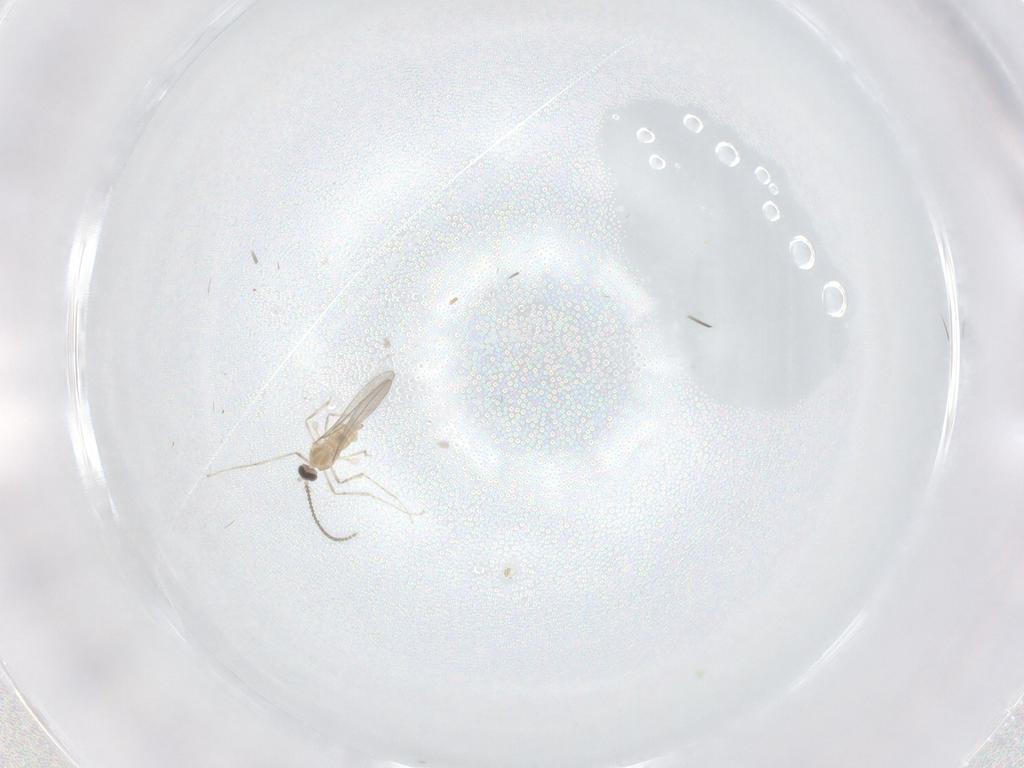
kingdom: Animalia
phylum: Arthropoda
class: Insecta
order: Diptera
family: Cecidomyiidae
